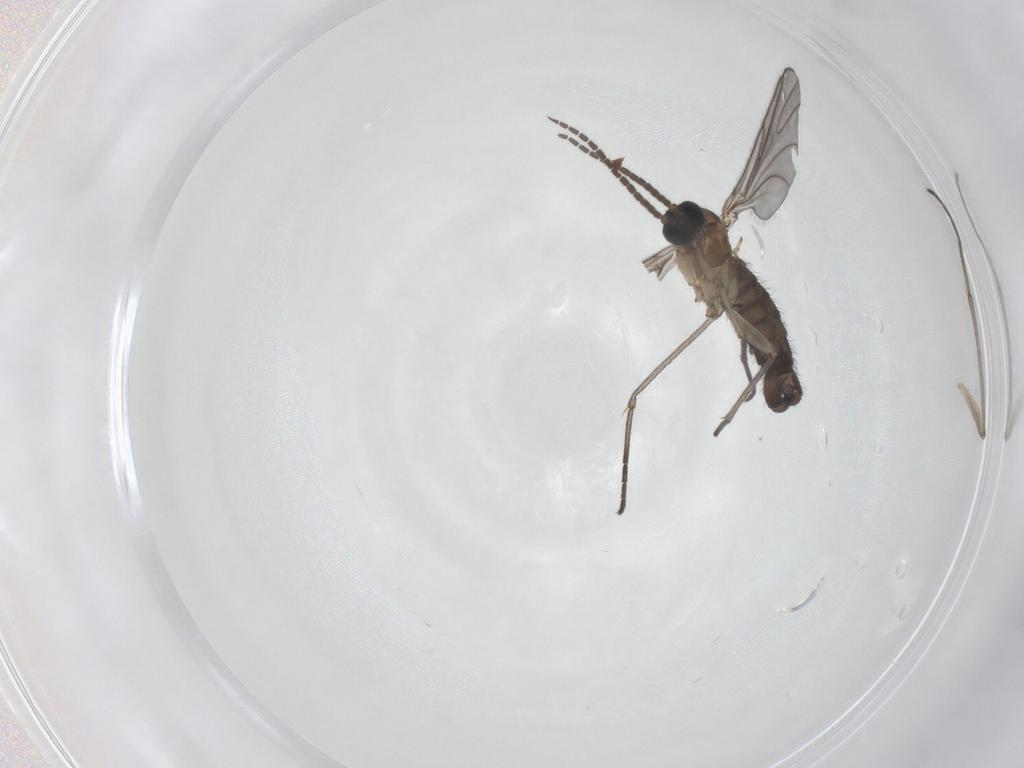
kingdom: Animalia
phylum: Arthropoda
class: Insecta
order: Diptera
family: Sciaridae
